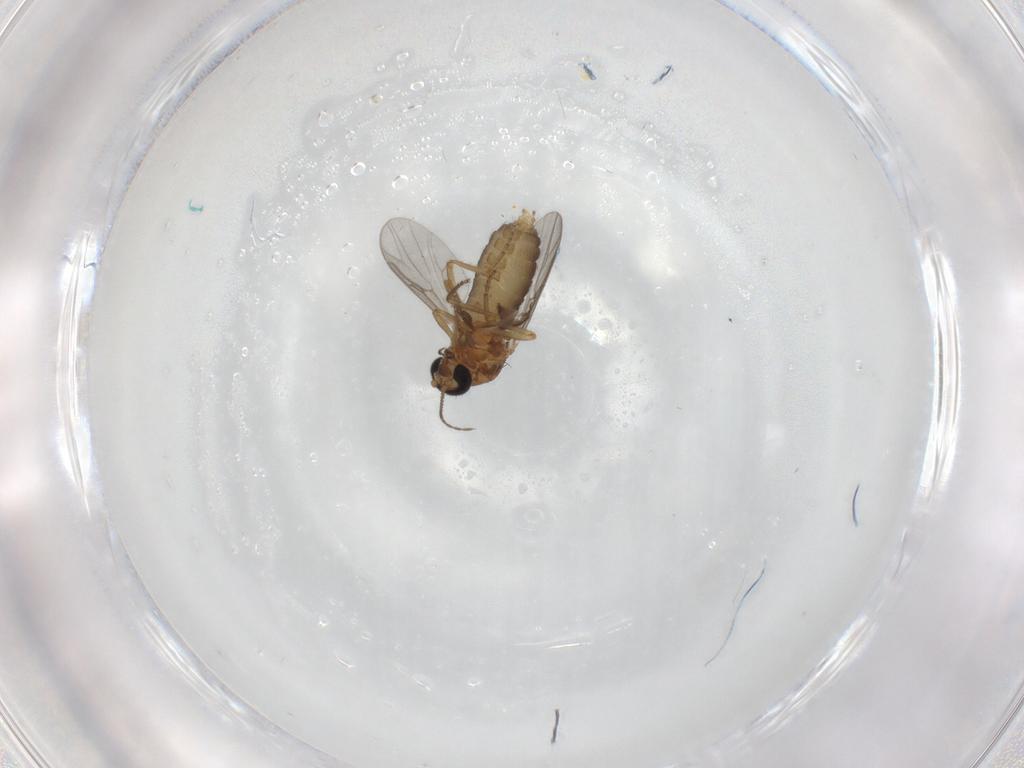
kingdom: Animalia
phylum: Arthropoda
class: Insecta
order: Diptera
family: Ceratopogonidae
